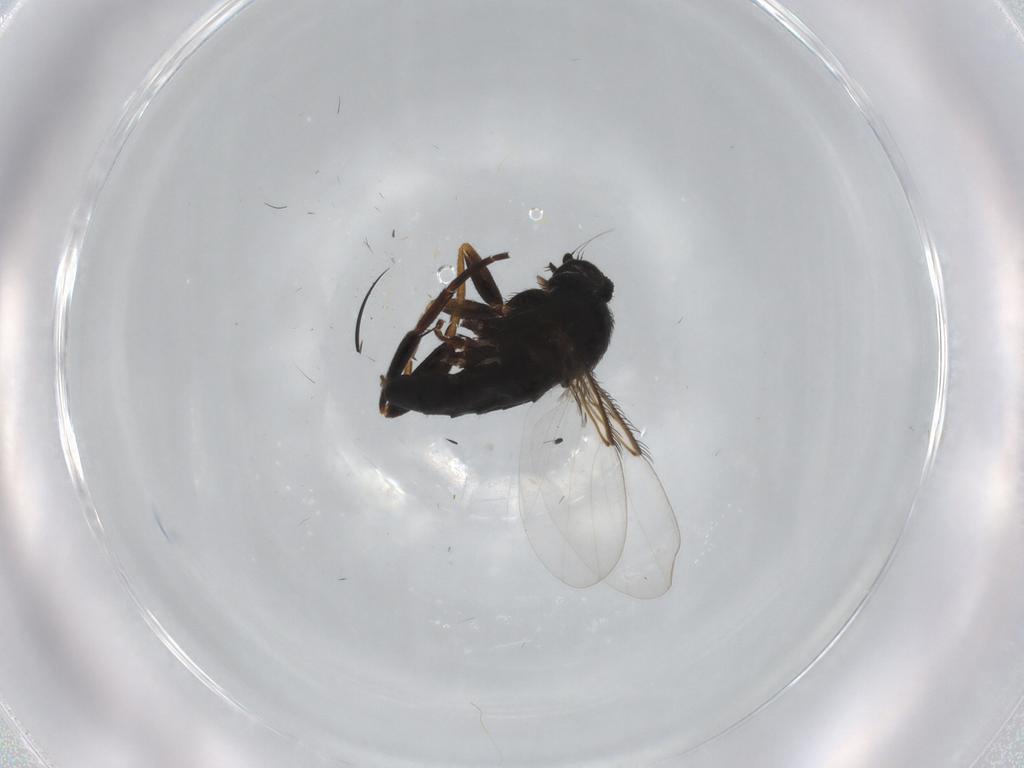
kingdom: Animalia
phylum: Arthropoda
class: Insecta
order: Diptera
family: Phoridae
